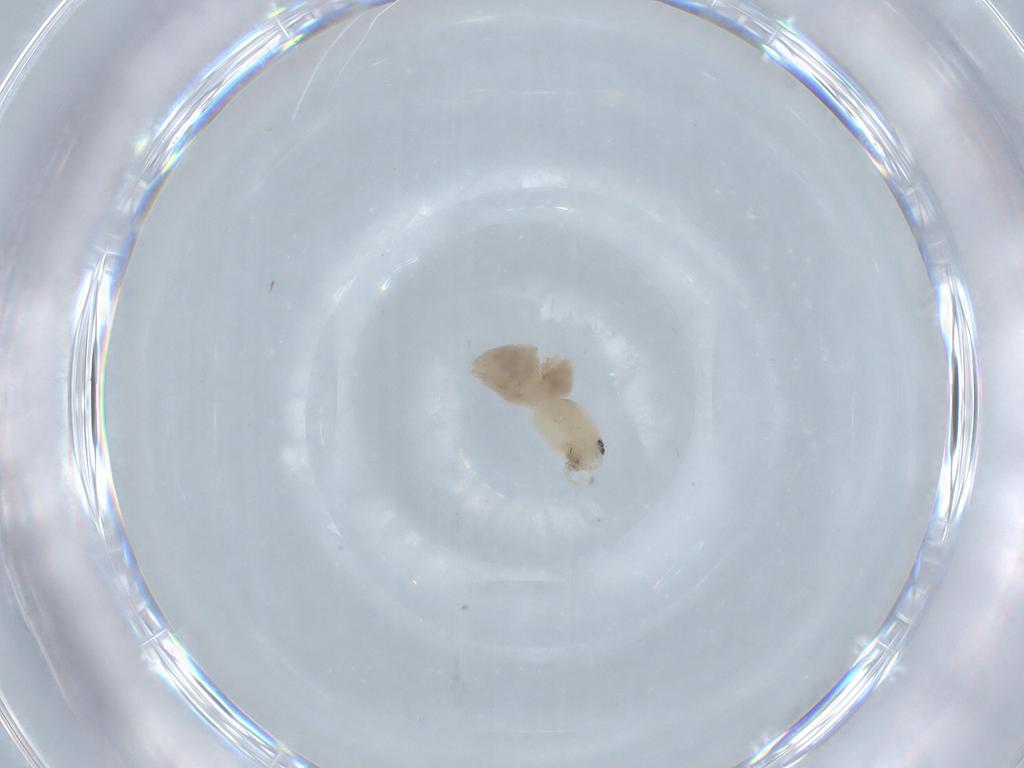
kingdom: Animalia
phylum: Arthropoda
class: Arachnida
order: Araneae
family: Anyphaenidae
